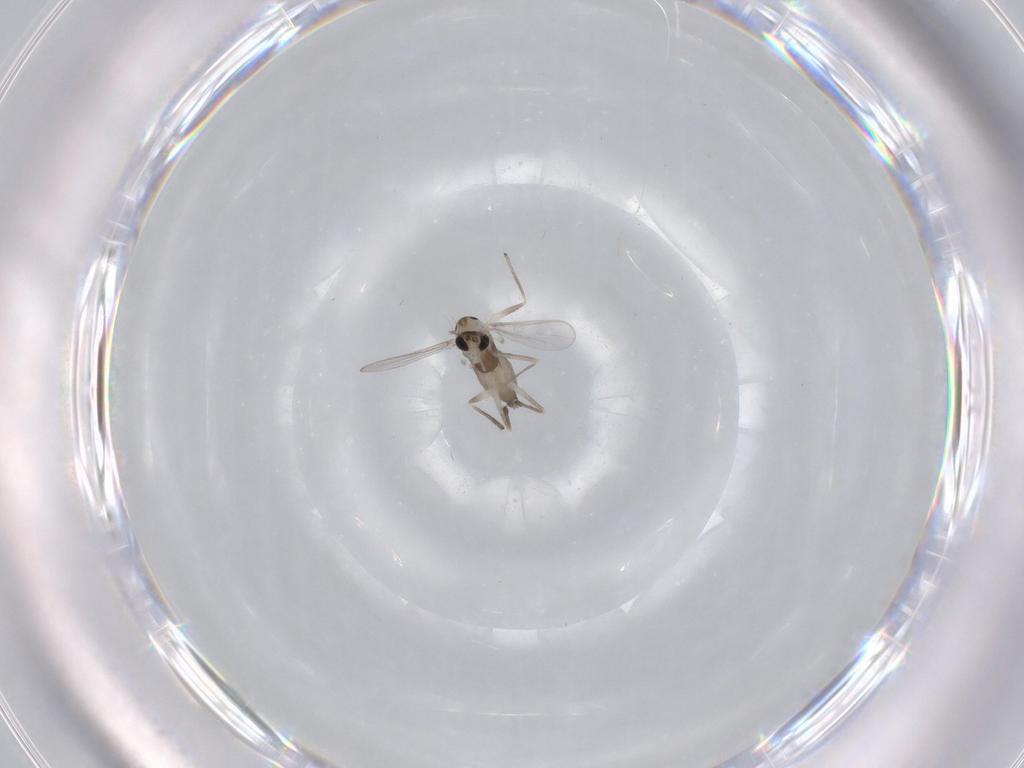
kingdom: Animalia
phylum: Arthropoda
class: Insecta
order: Diptera
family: Chironomidae
